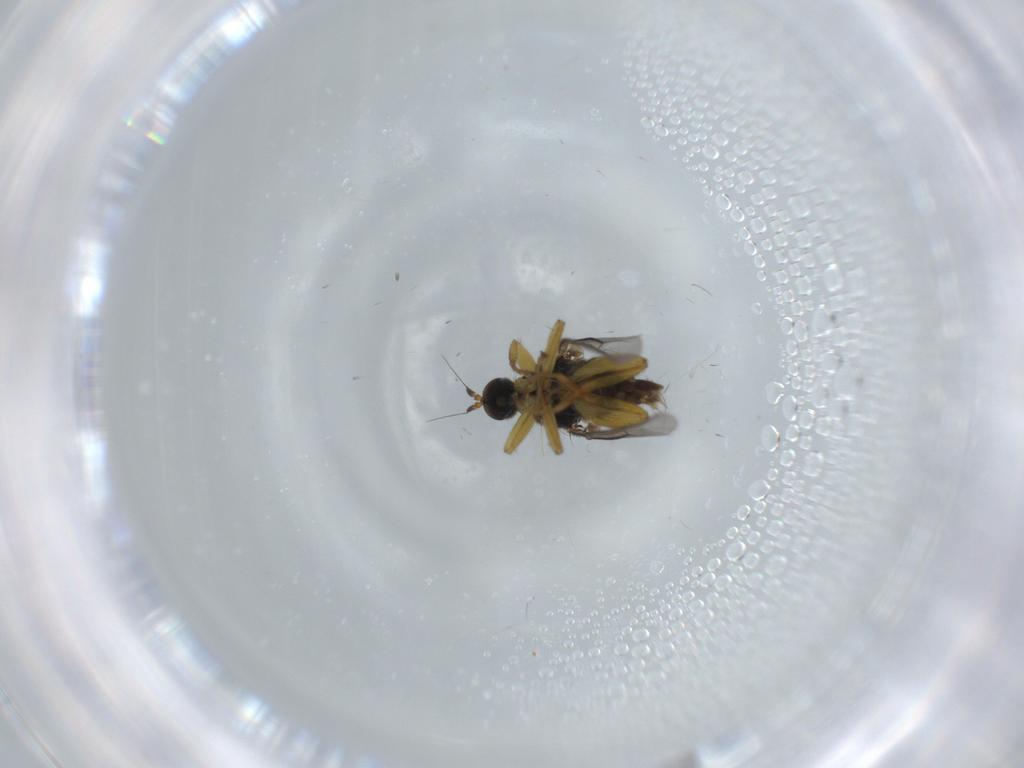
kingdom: Animalia
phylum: Arthropoda
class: Insecta
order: Diptera
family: Hybotidae
